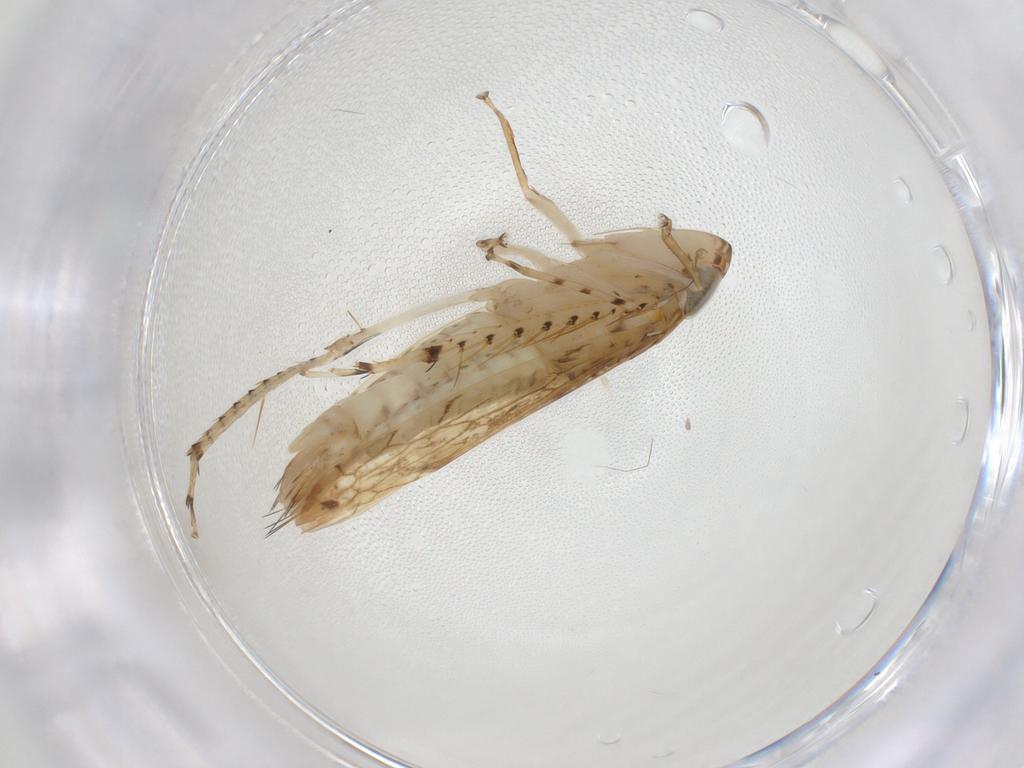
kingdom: Animalia
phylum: Arthropoda
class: Insecta
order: Hemiptera
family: Cicadellidae
